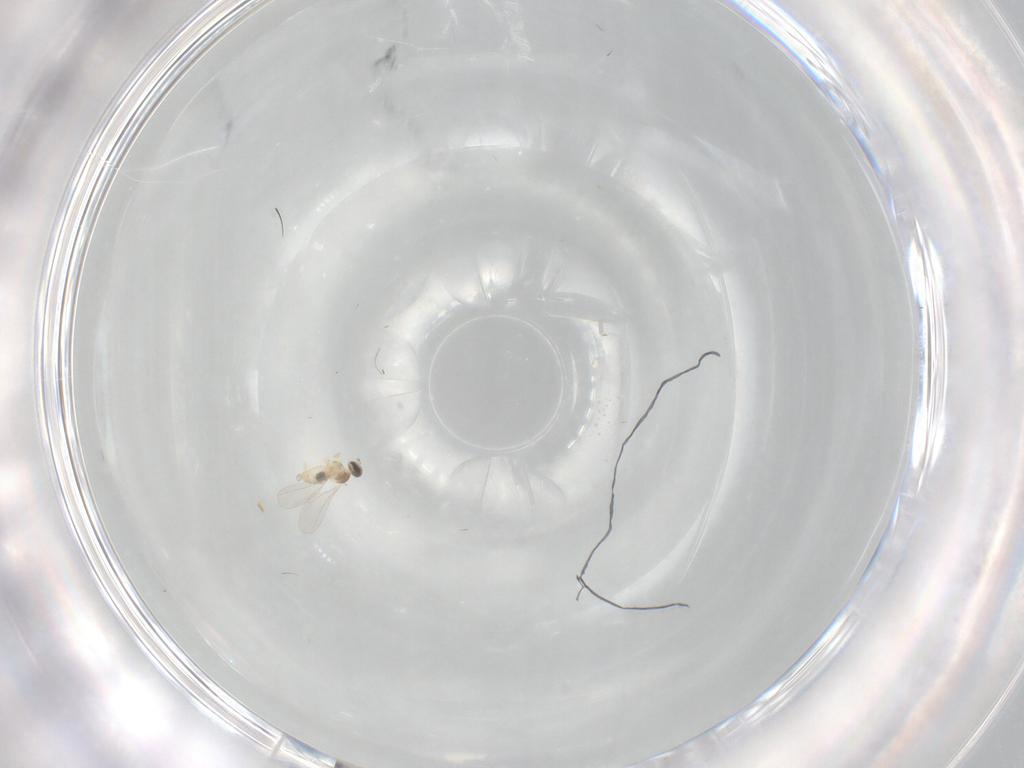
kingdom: Animalia
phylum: Arthropoda
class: Insecta
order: Diptera
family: Cecidomyiidae
